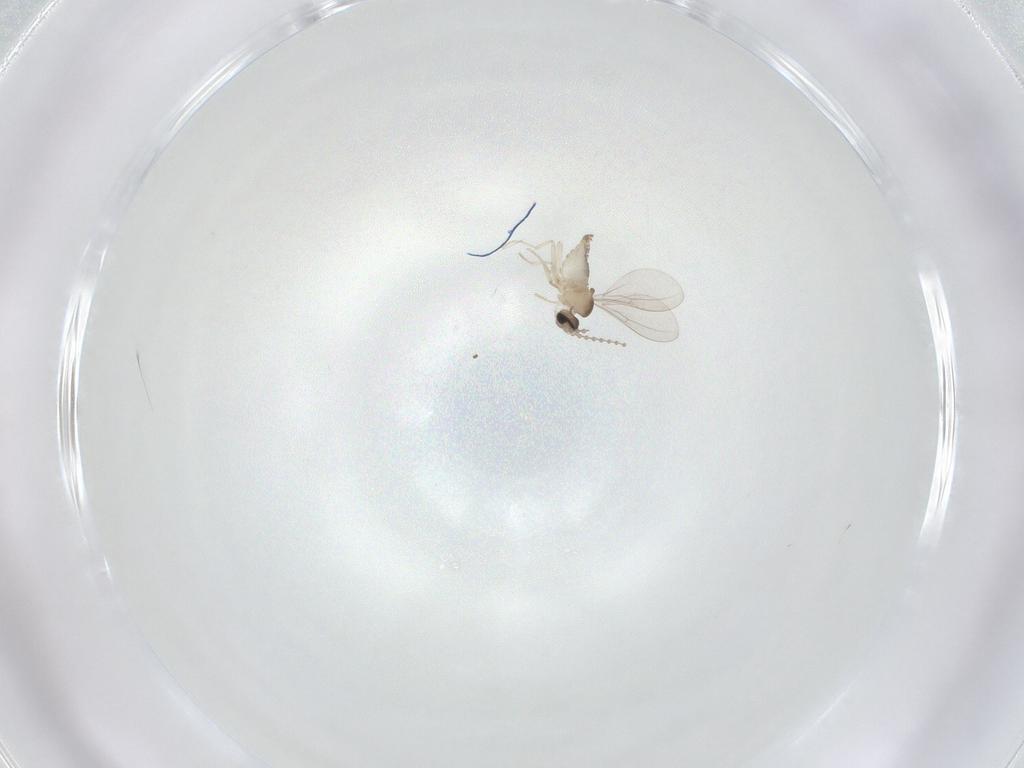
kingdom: Animalia
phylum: Arthropoda
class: Insecta
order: Diptera
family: Cecidomyiidae
